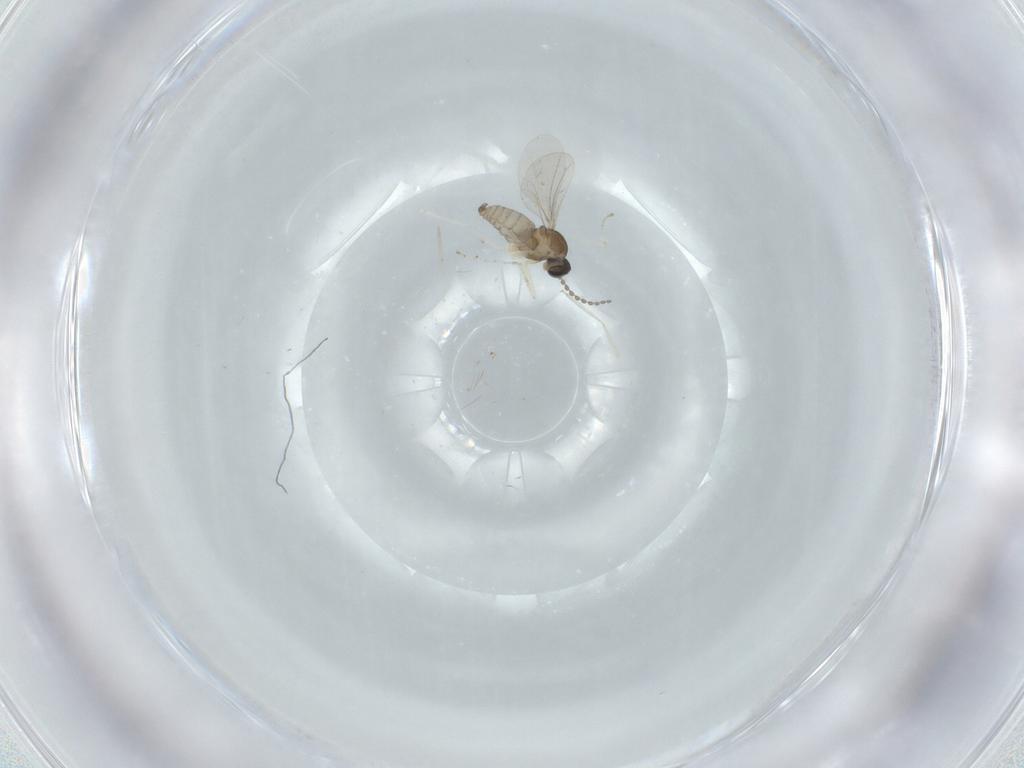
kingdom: Animalia
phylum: Arthropoda
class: Insecta
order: Diptera
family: Cecidomyiidae
